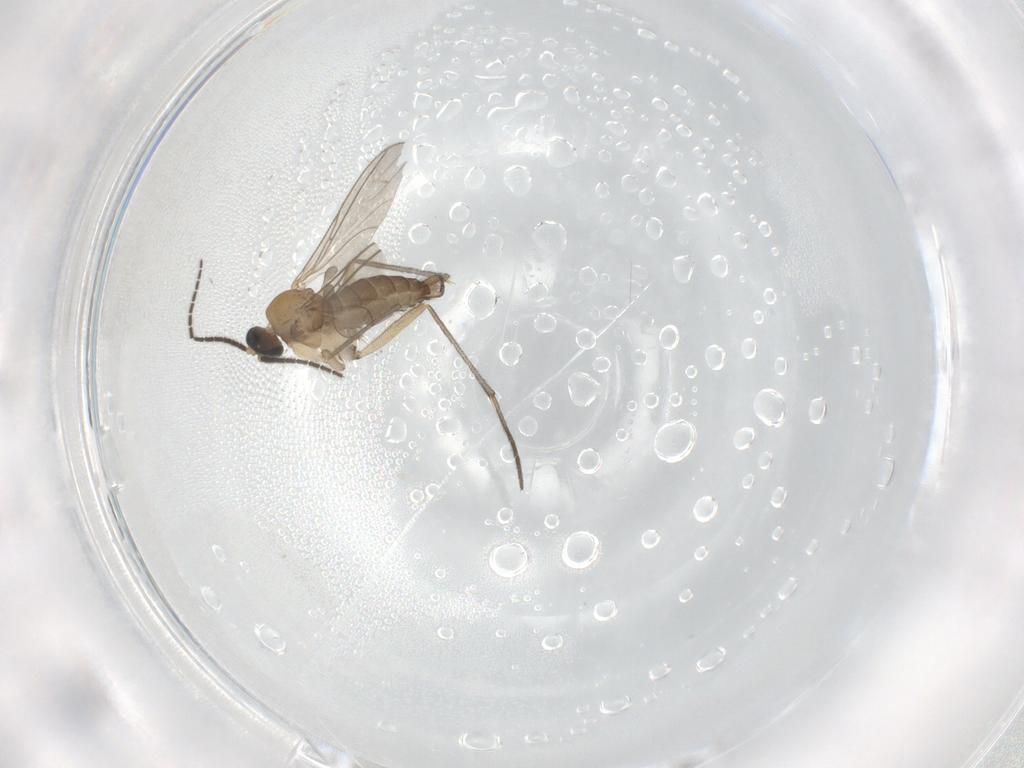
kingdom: Animalia
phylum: Arthropoda
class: Insecta
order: Diptera
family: Sciaridae
